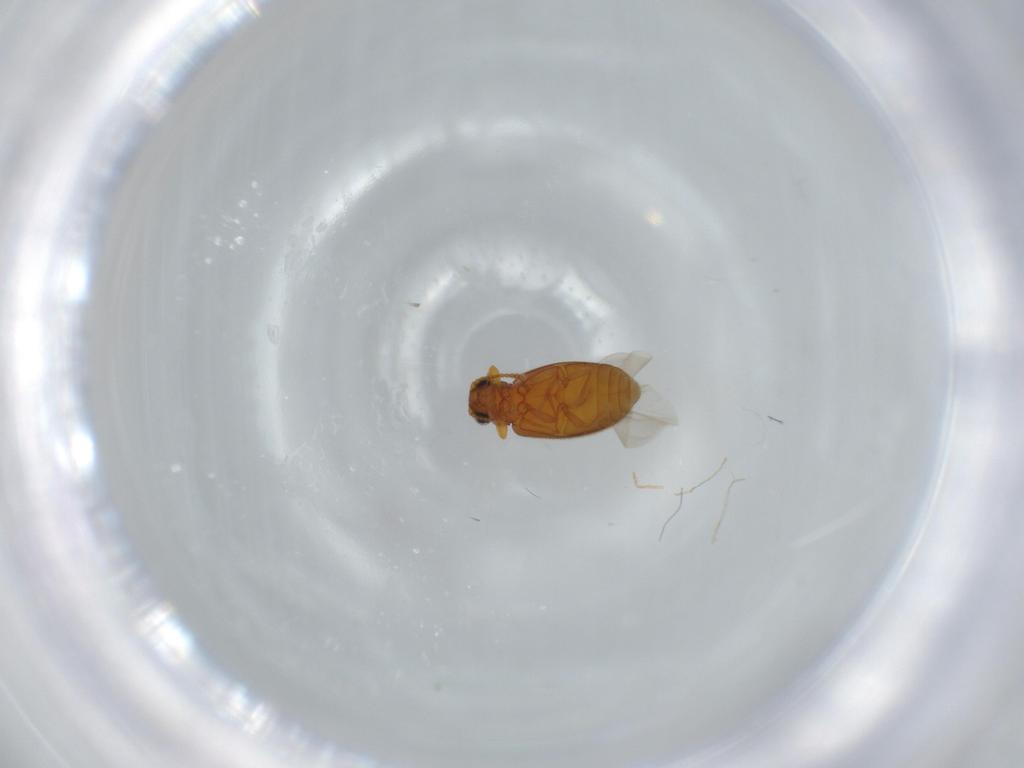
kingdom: Animalia
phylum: Arthropoda
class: Insecta
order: Coleoptera
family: Aderidae
